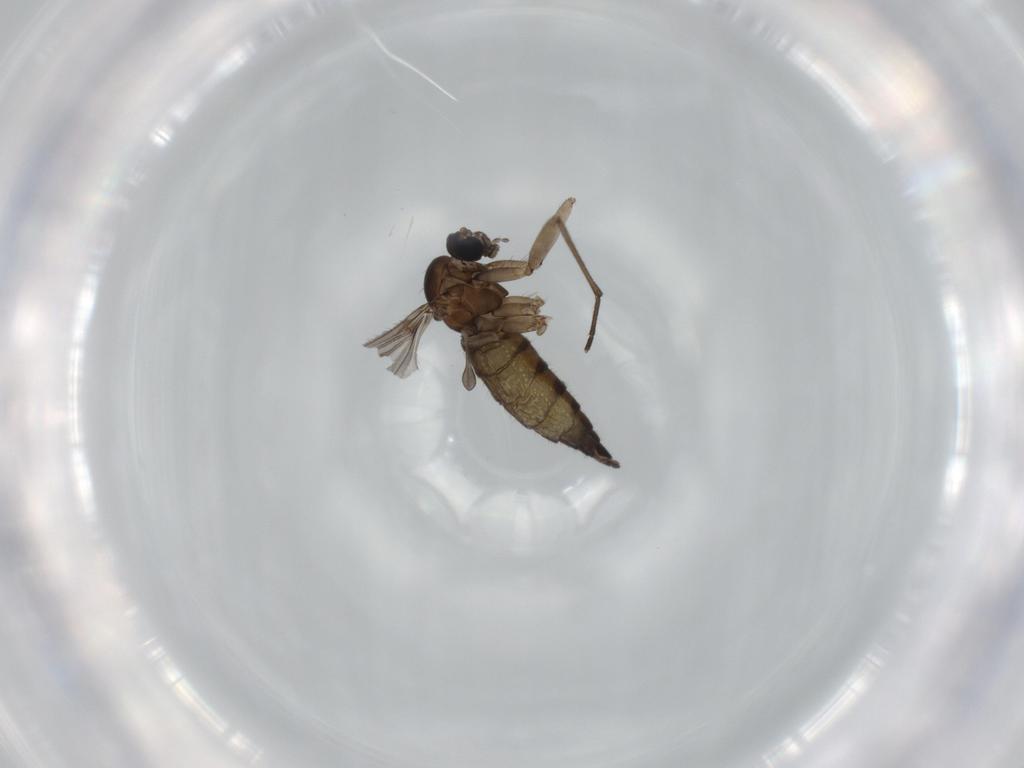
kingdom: Animalia
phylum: Arthropoda
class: Insecta
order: Diptera
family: Sciaridae
